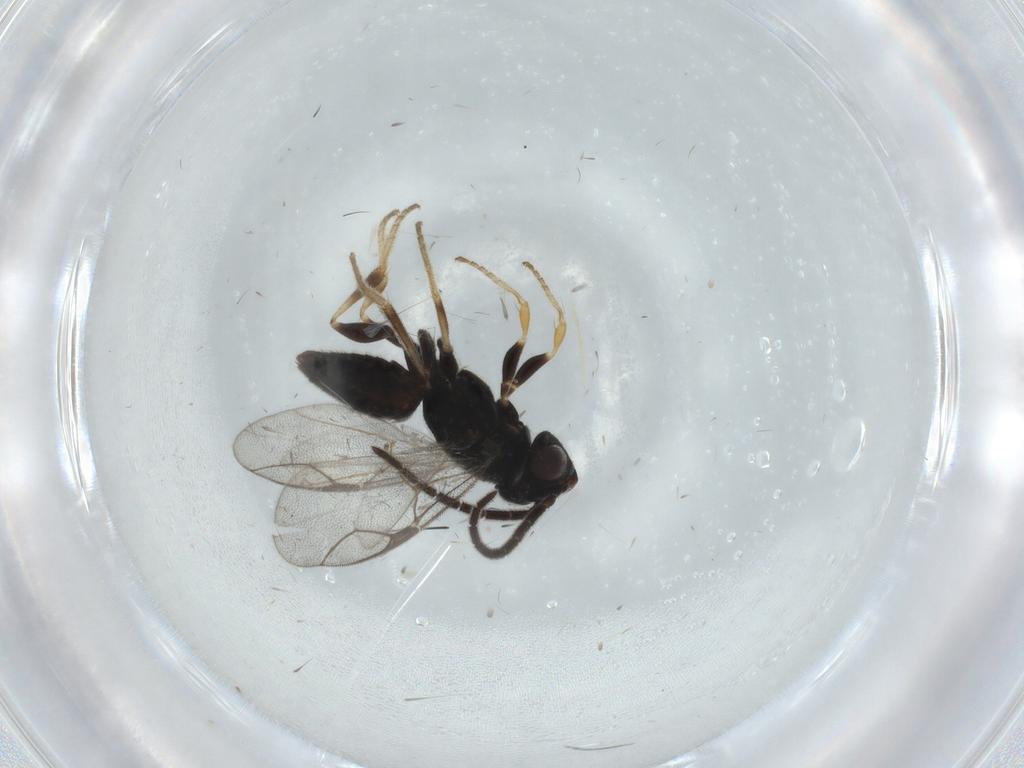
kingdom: Animalia
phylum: Arthropoda
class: Insecta
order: Hymenoptera
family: Dryinidae
